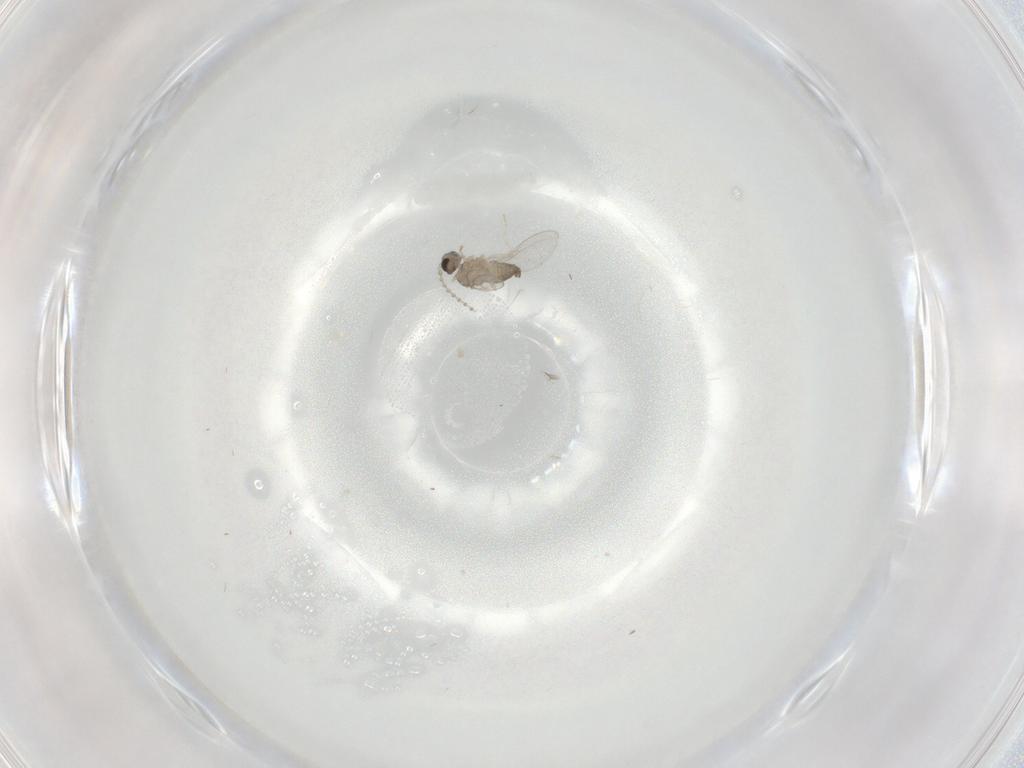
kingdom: Animalia
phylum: Arthropoda
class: Insecta
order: Diptera
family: Cecidomyiidae
